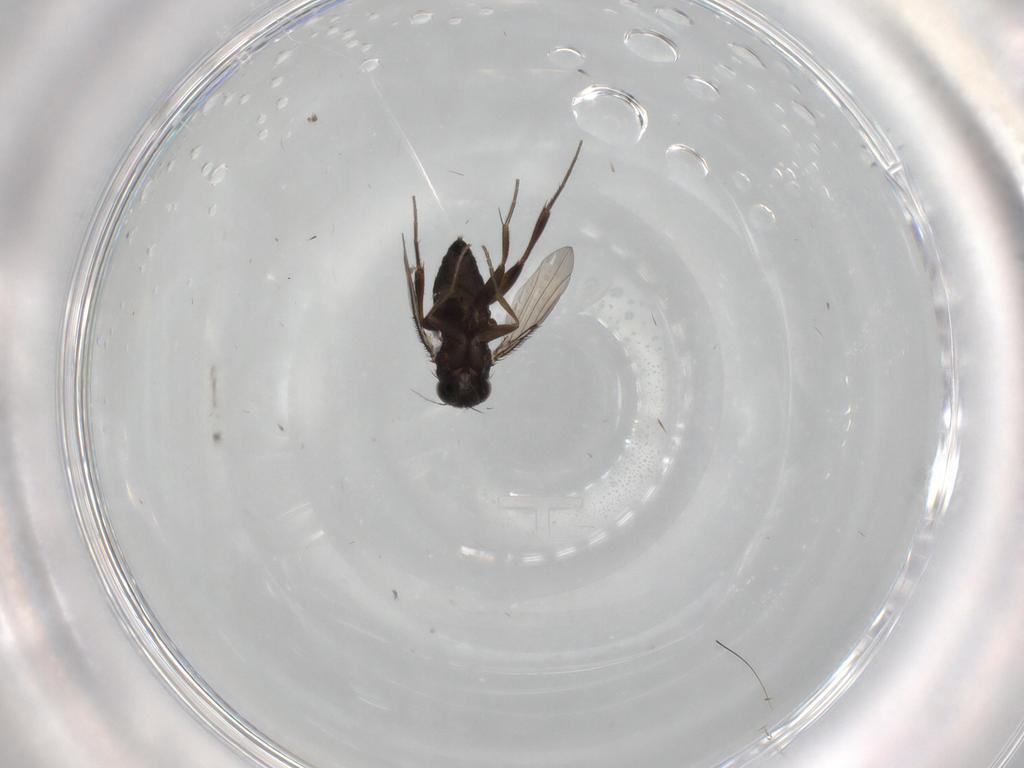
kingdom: Animalia
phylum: Arthropoda
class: Insecta
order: Diptera
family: Phoridae
